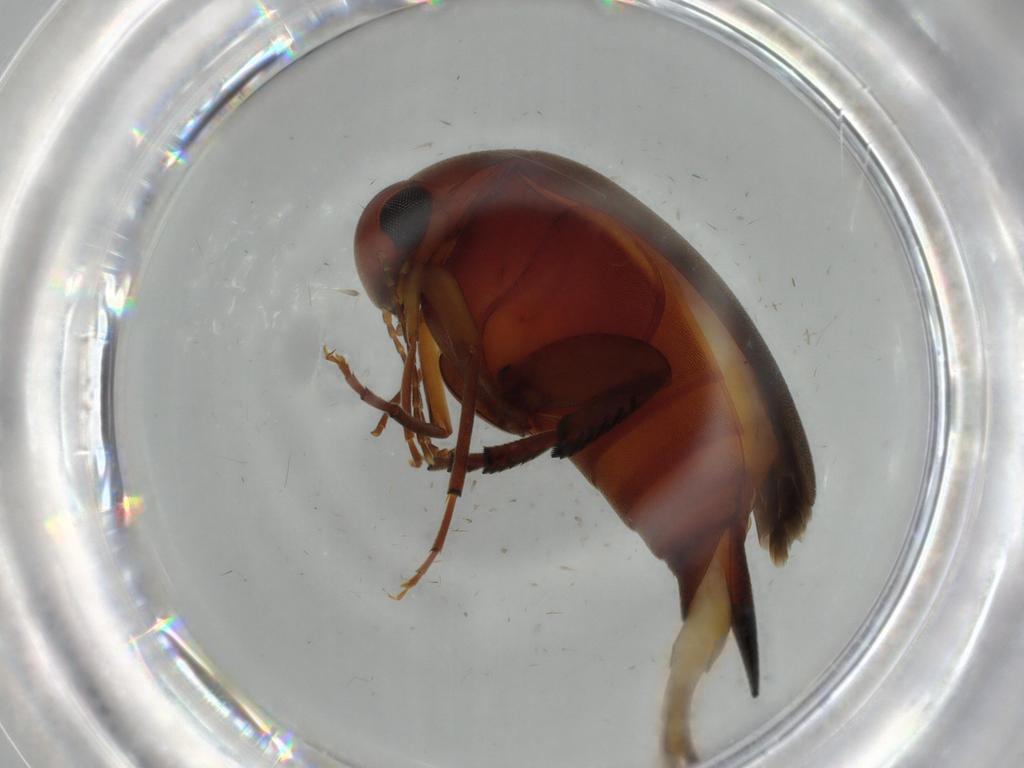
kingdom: Animalia
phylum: Arthropoda
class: Insecta
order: Coleoptera
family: Mordellidae
